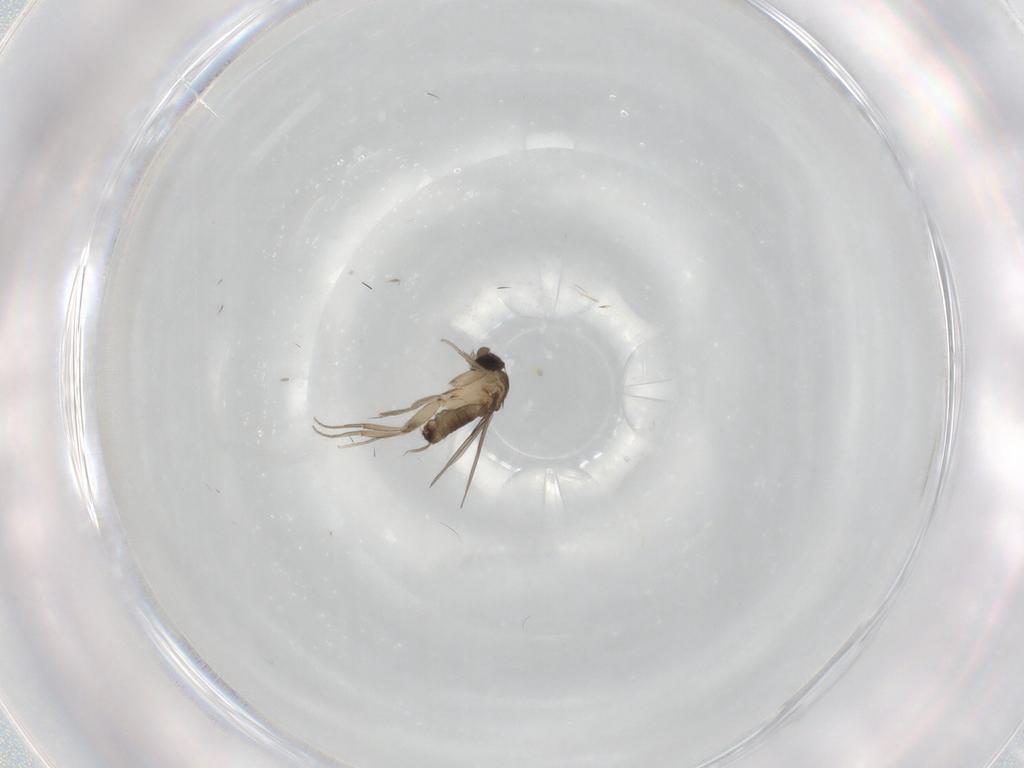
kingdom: Animalia
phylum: Arthropoda
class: Insecta
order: Diptera
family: Phoridae
